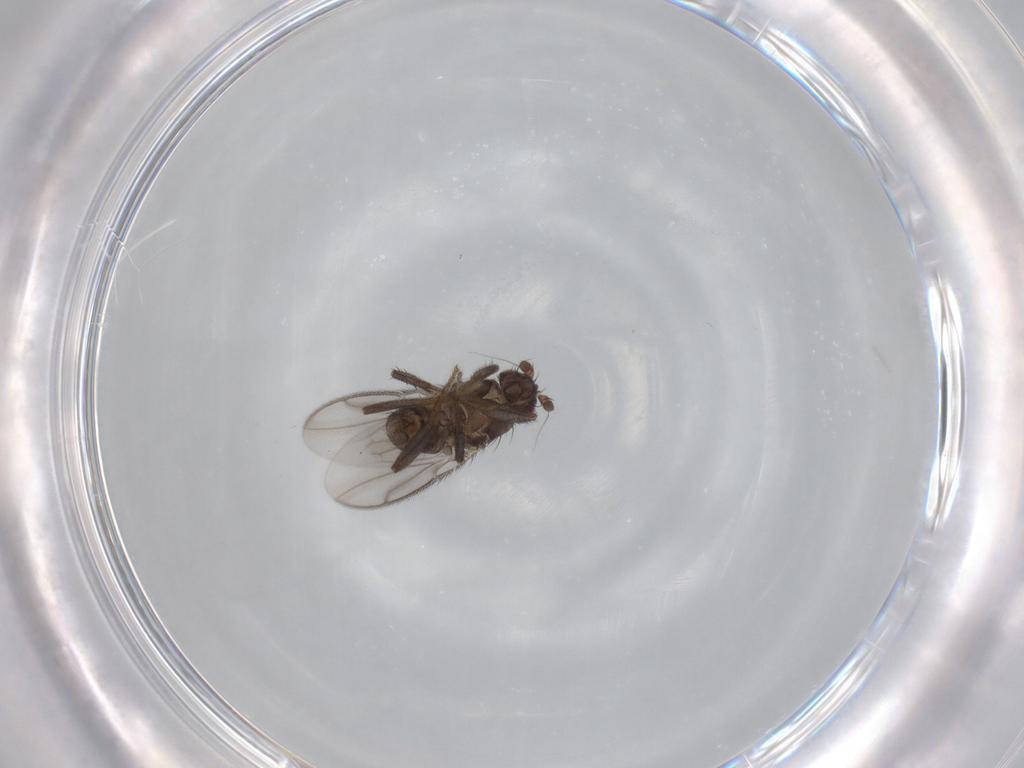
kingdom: Animalia
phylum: Arthropoda
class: Insecta
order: Diptera
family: Sphaeroceridae
